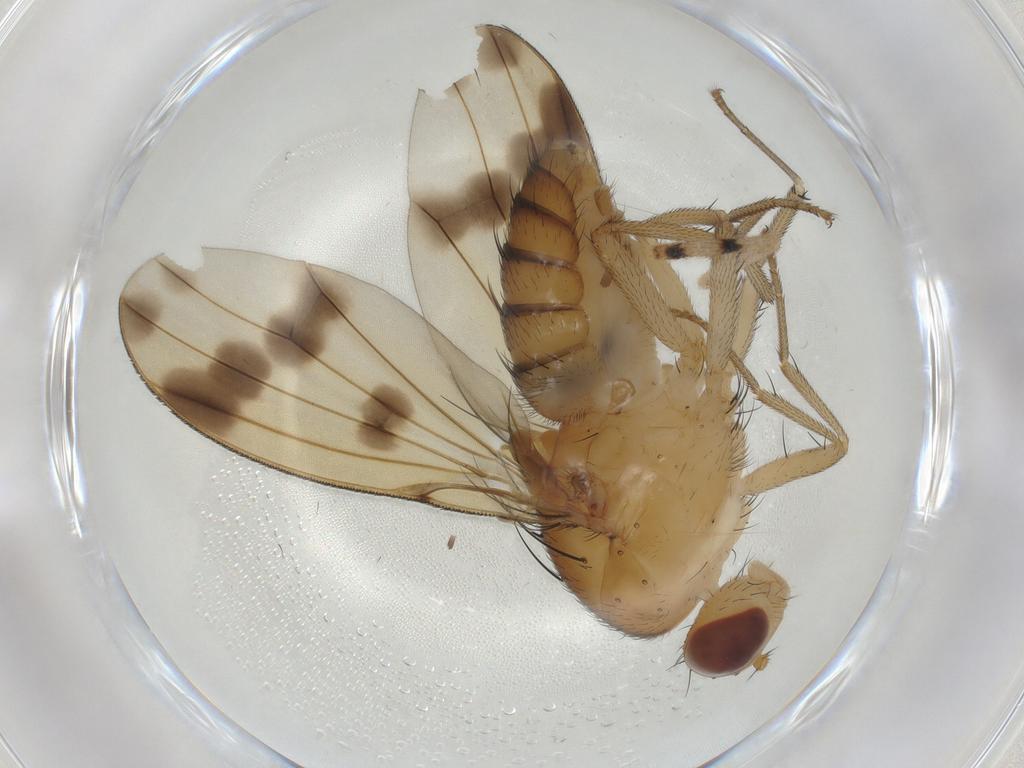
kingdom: Animalia
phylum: Arthropoda
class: Insecta
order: Neuroptera
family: Hemerobiidae
